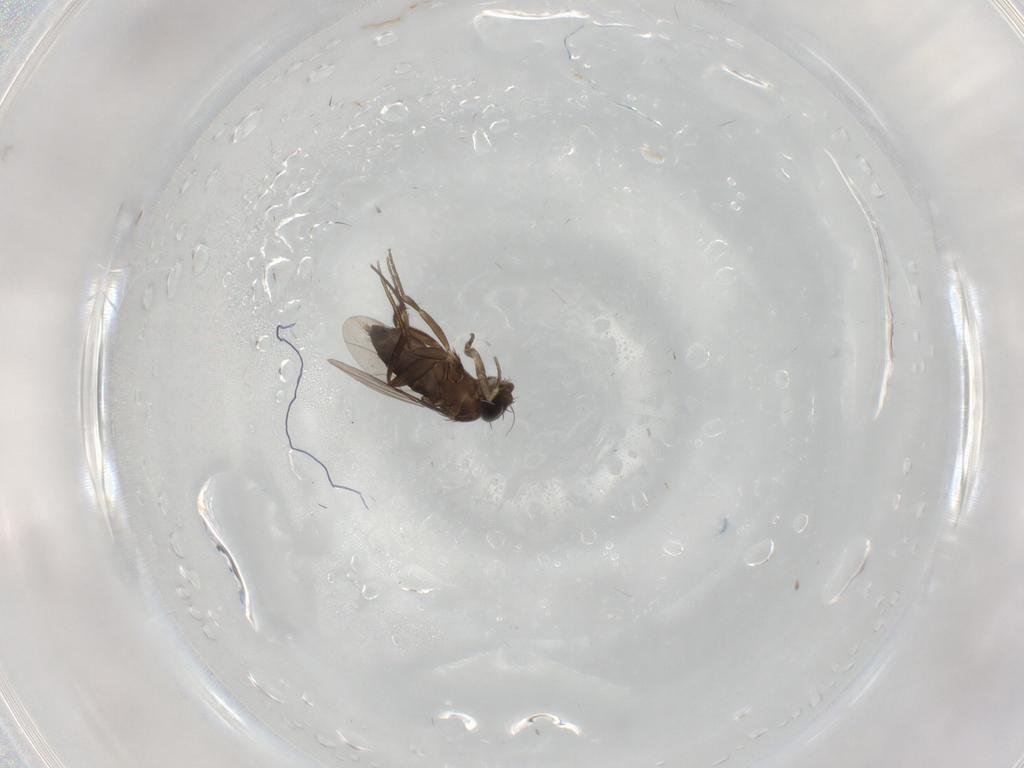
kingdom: Animalia
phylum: Arthropoda
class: Insecta
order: Diptera
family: Phoridae
